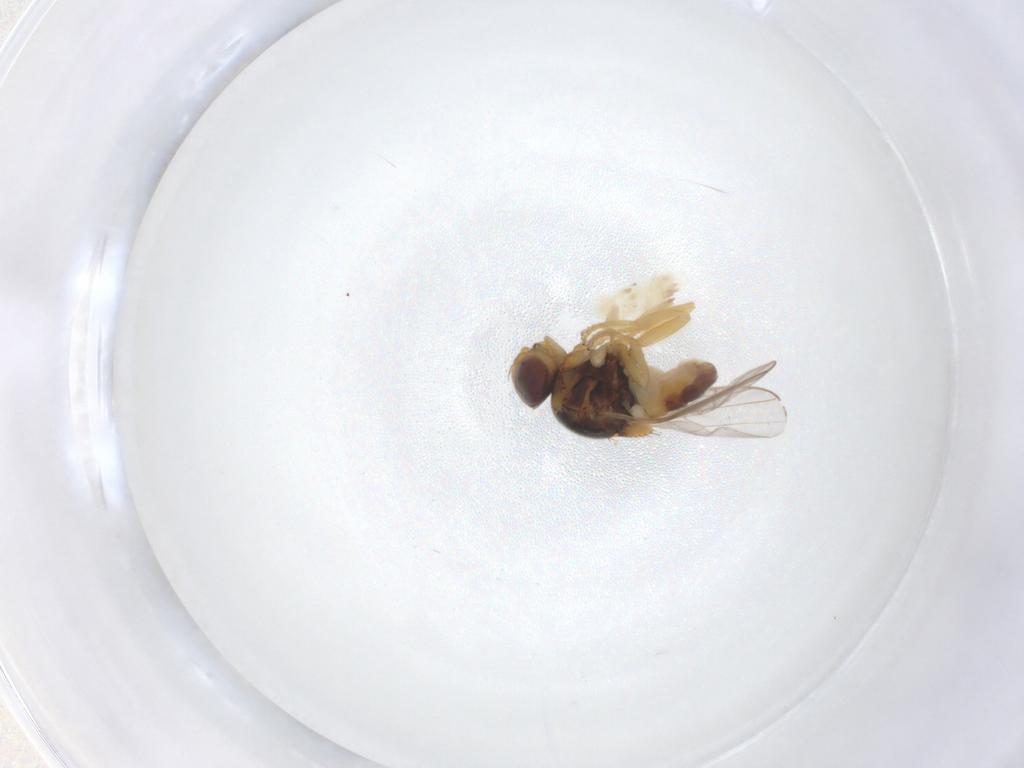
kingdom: Animalia
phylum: Arthropoda
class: Insecta
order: Diptera
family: Chloropidae
